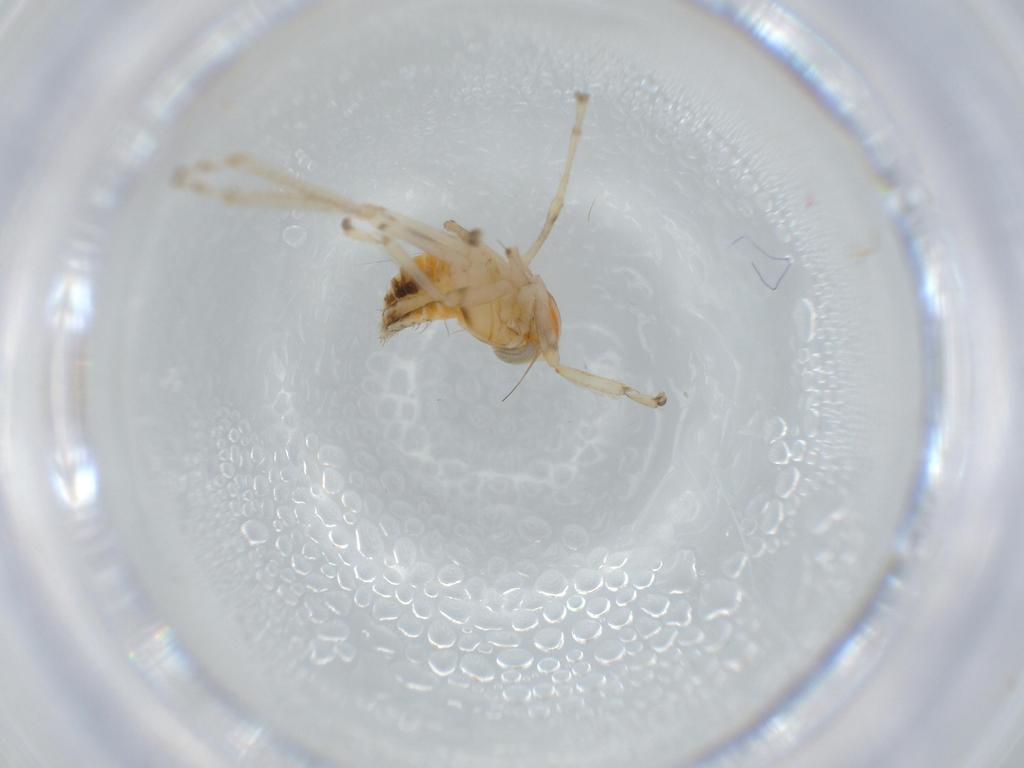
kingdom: Animalia
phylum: Arthropoda
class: Insecta
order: Hemiptera
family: Cicadellidae
